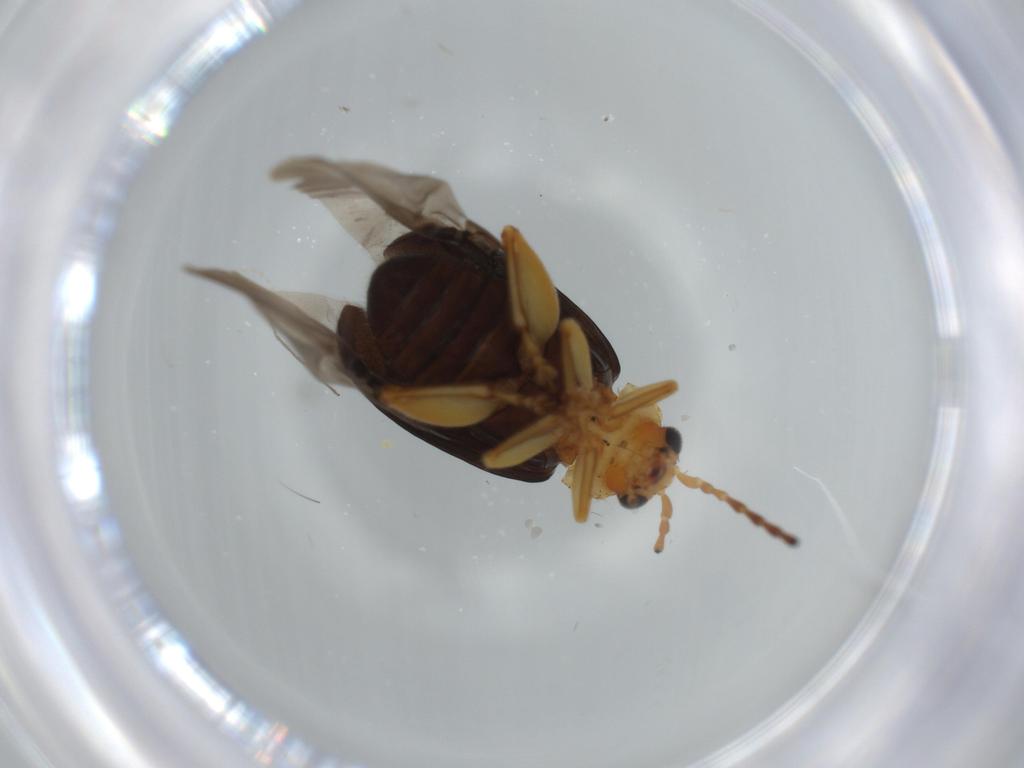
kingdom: Animalia
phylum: Arthropoda
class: Insecta
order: Coleoptera
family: Chrysomelidae
